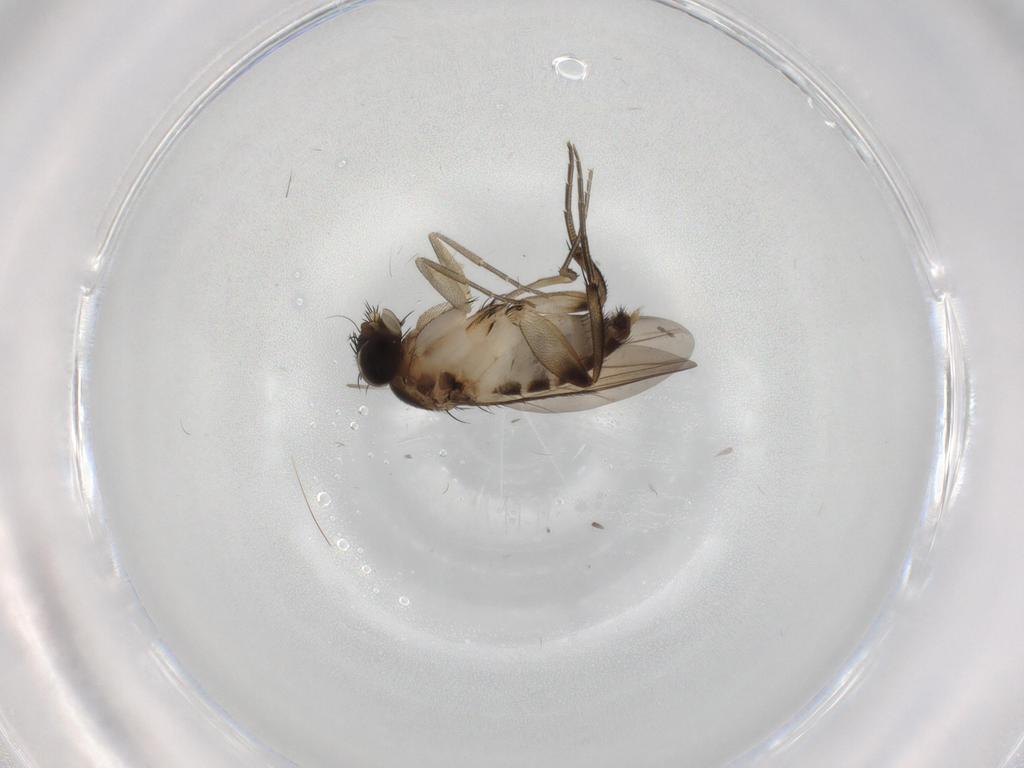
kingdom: Animalia
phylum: Arthropoda
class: Insecta
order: Diptera
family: Phoridae
